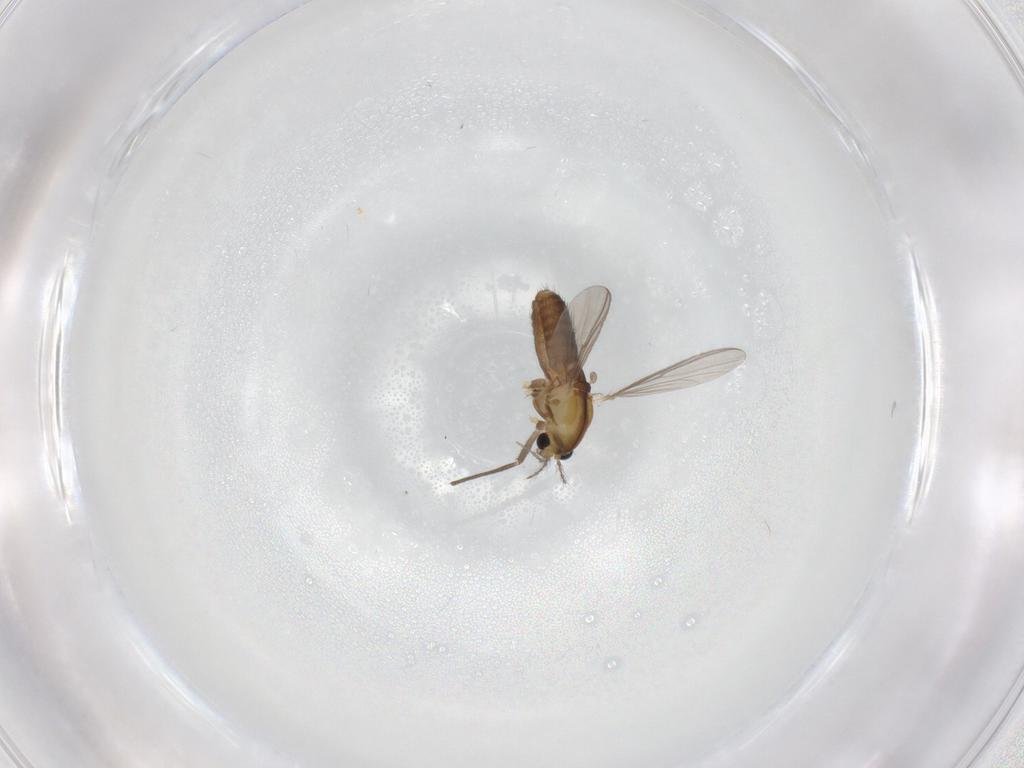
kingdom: Animalia
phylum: Arthropoda
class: Insecta
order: Diptera
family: Chironomidae
